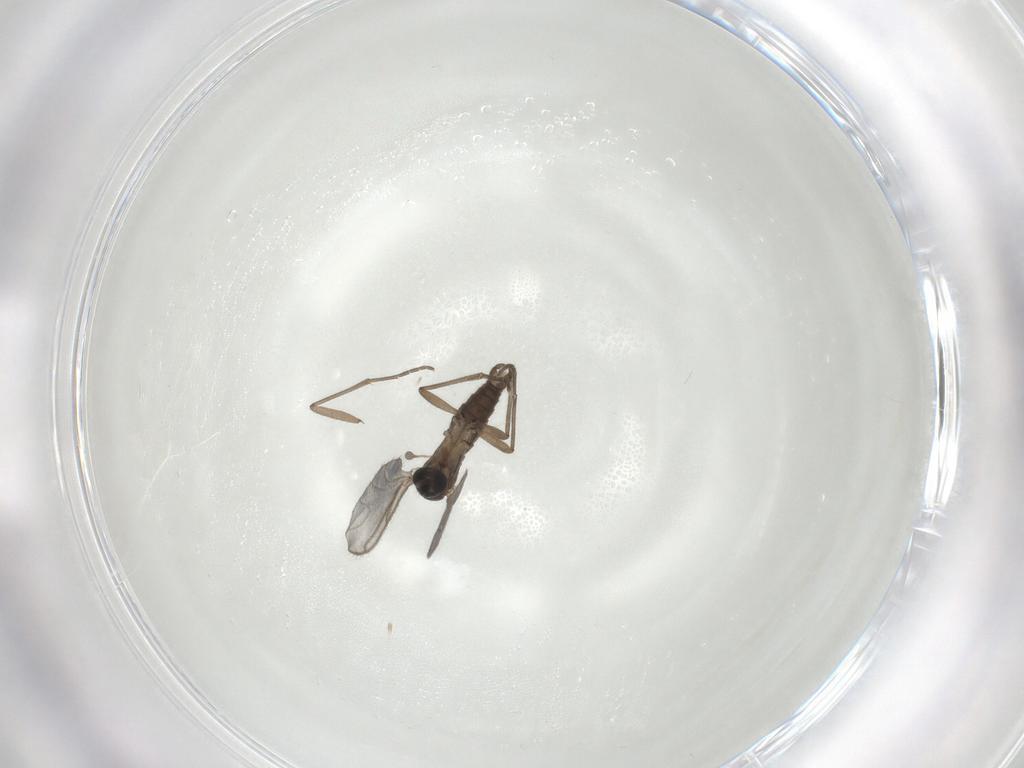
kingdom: Animalia
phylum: Arthropoda
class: Insecta
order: Diptera
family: Sciaridae
